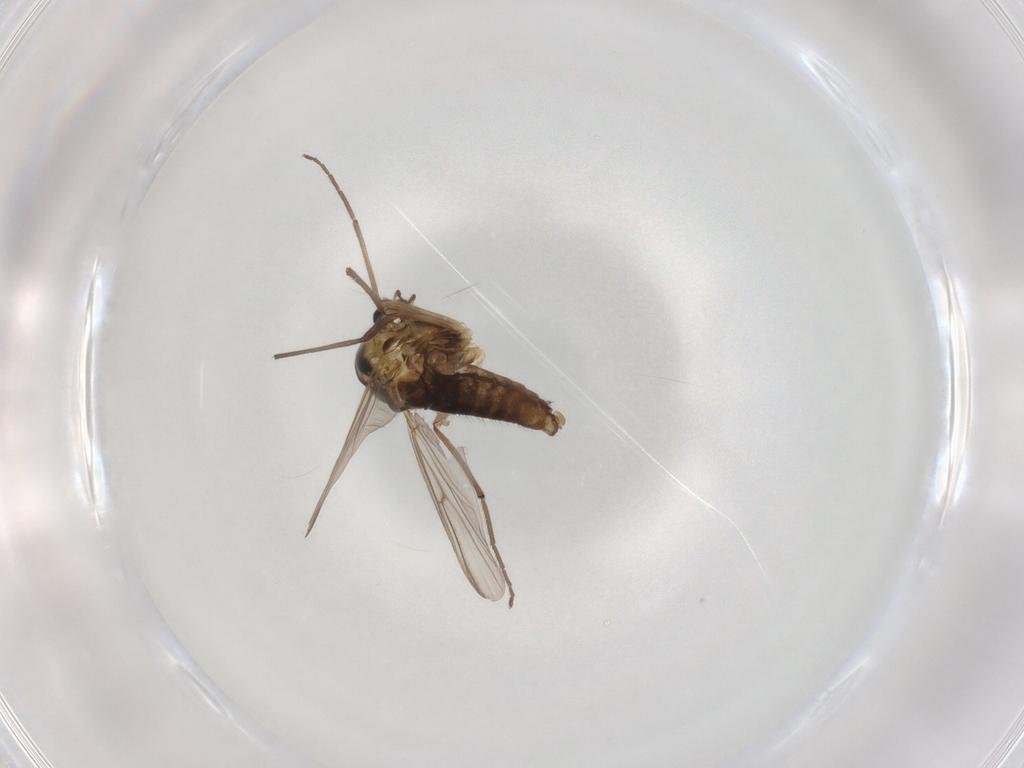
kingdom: Animalia
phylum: Arthropoda
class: Insecta
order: Diptera
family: Chironomidae
